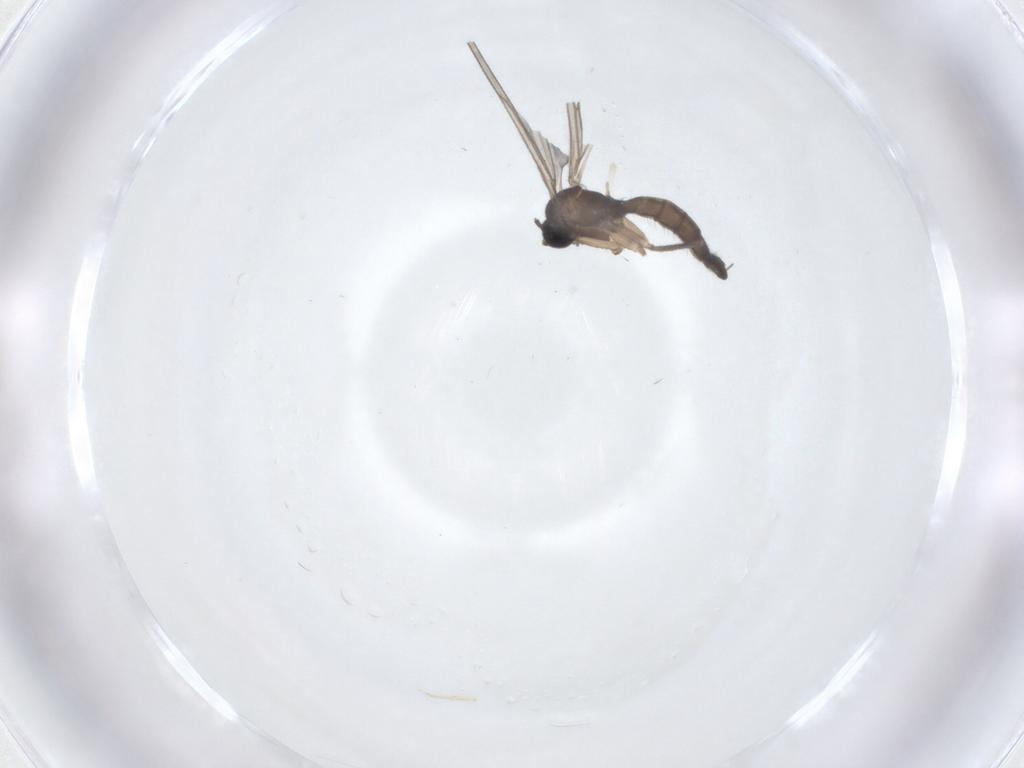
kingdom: Animalia
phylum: Arthropoda
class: Insecta
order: Diptera
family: Sciaridae
